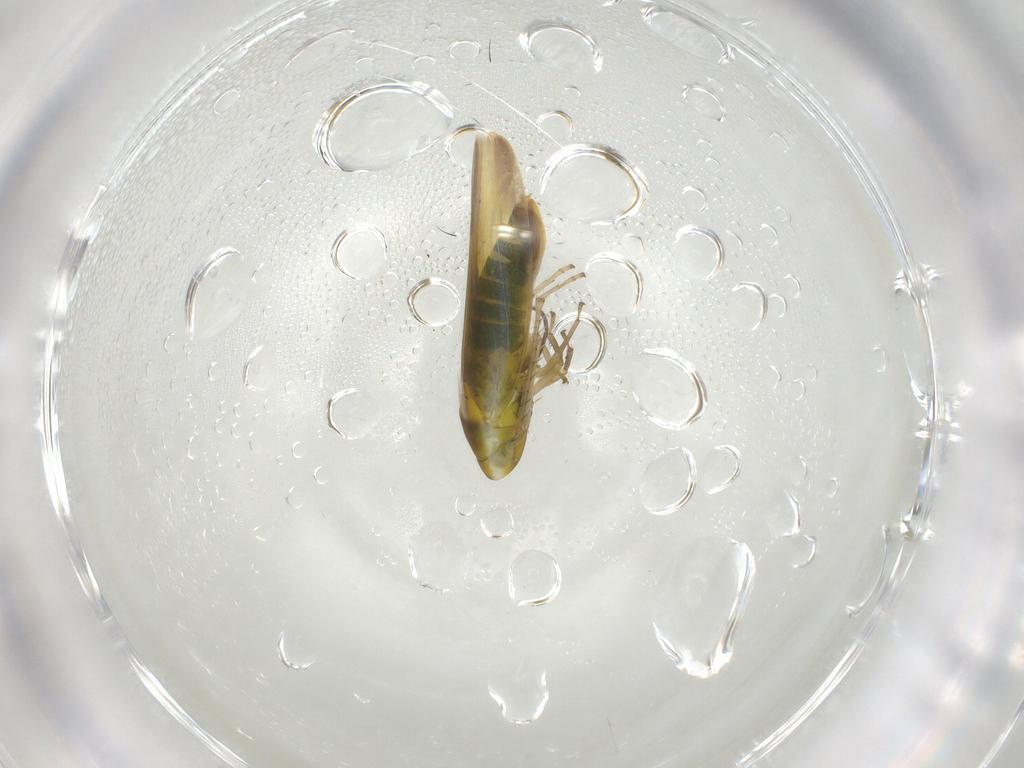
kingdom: Animalia
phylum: Arthropoda
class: Insecta
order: Hemiptera
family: Cicadellidae
